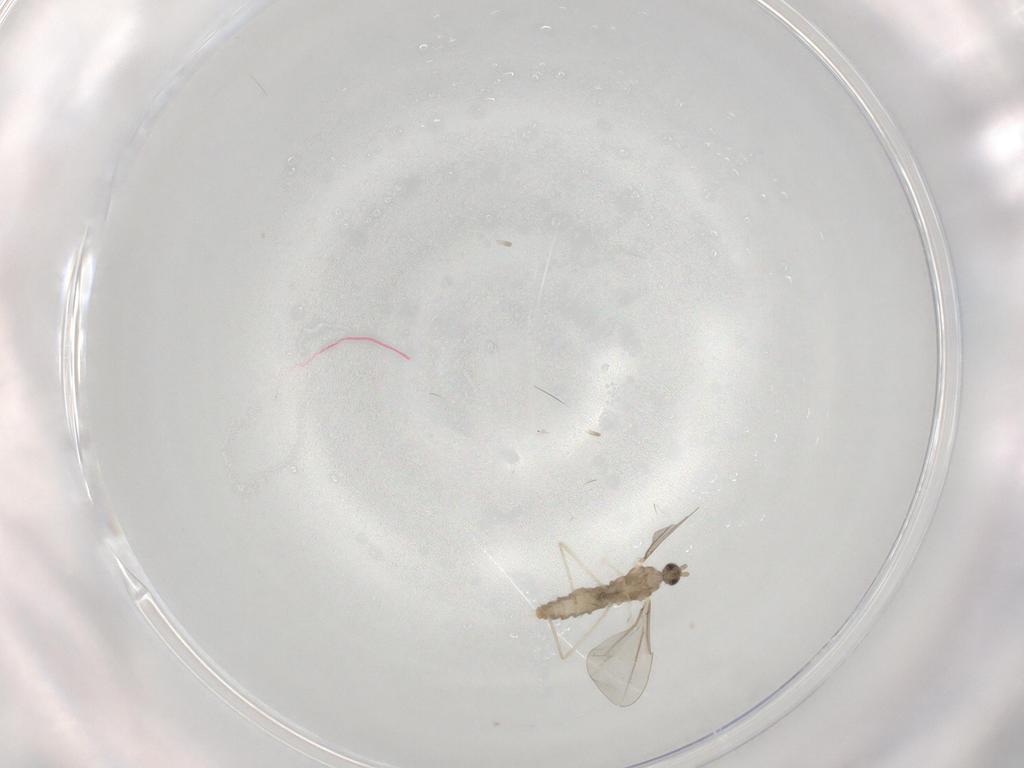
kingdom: Animalia
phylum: Arthropoda
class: Insecta
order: Diptera
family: Cecidomyiidae
